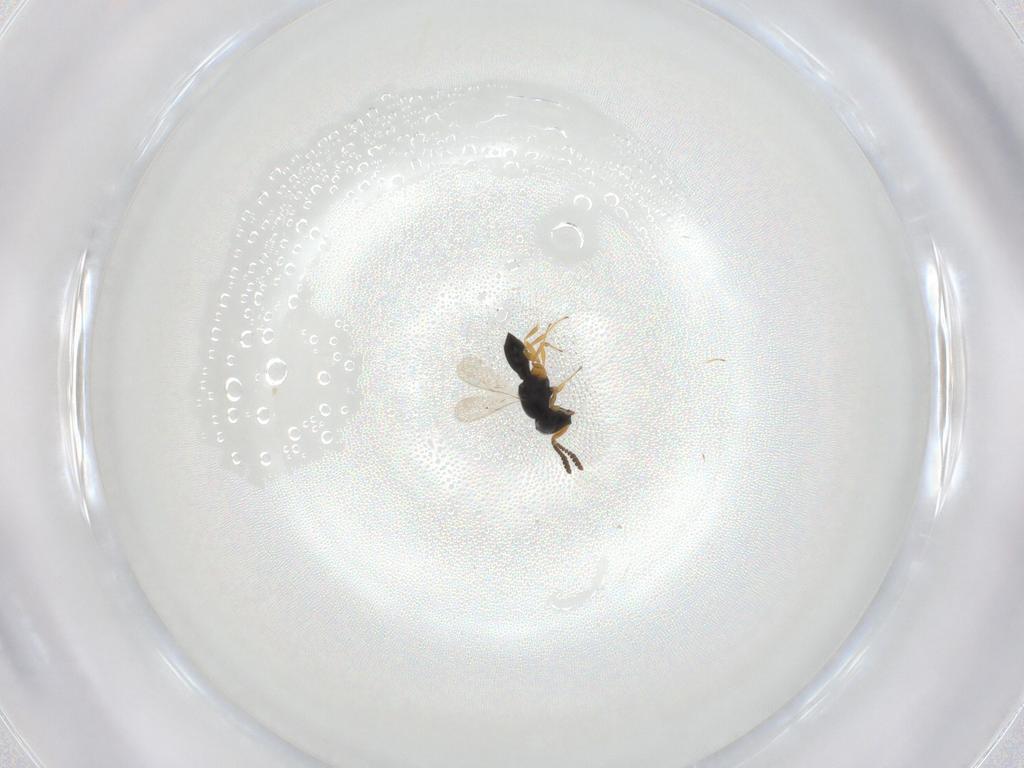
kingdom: Animalia
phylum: Arthropoda
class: Insecta
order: Hymenoptera
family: Scelionidae
